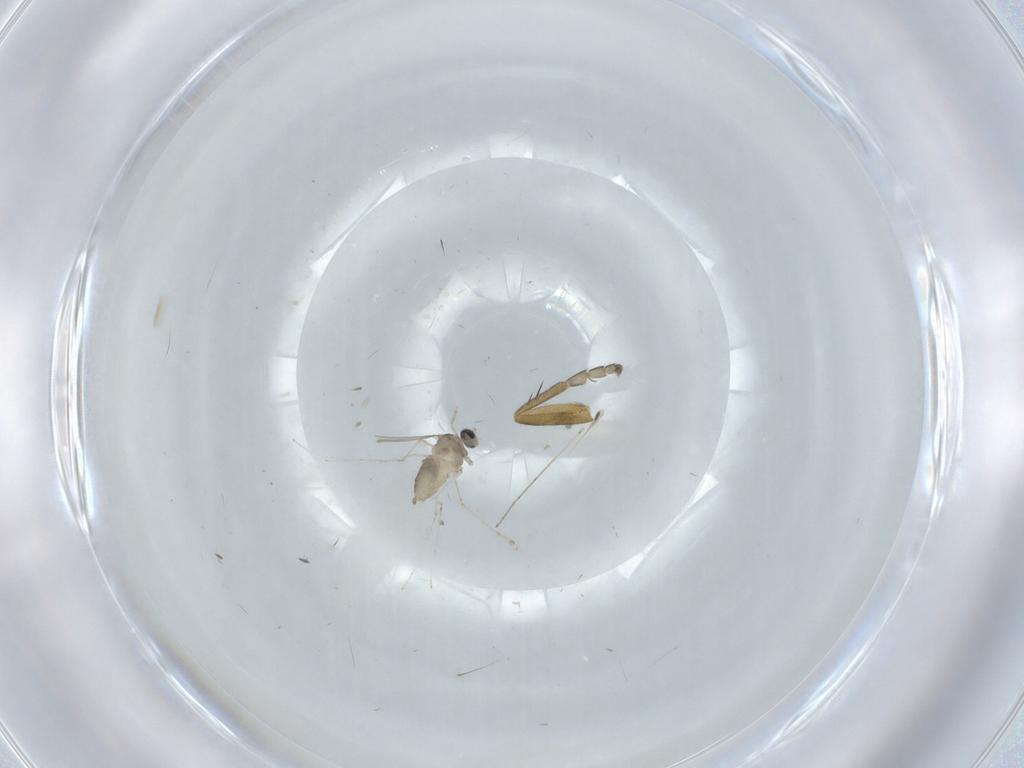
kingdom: Animalia
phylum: Arthropoda
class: Insecta
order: Diptera
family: Cecidomyiidae
